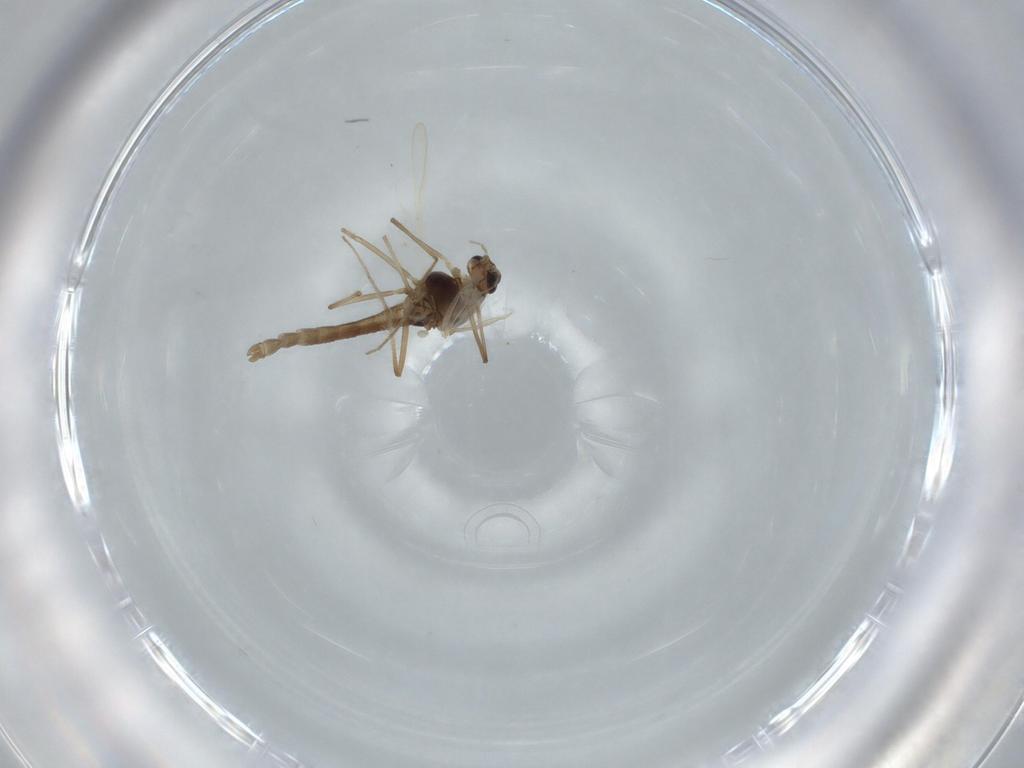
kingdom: Animalia
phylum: Arthropoda
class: Insecta
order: Diptera
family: Chironomidae
